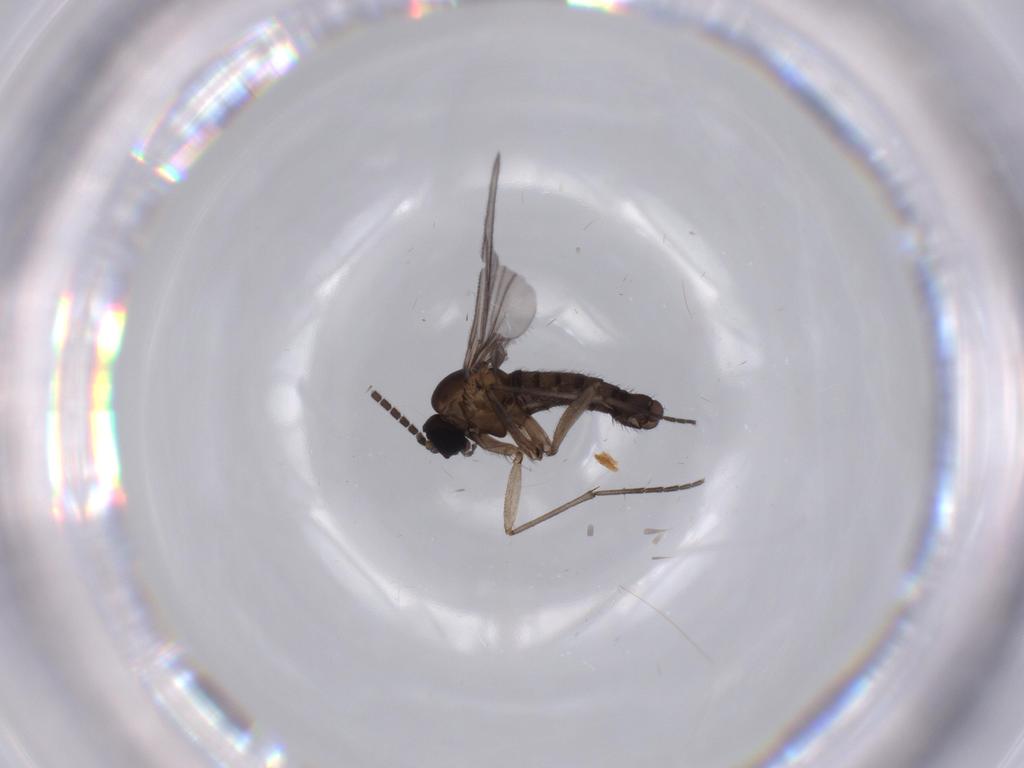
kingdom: Animalia
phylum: Arthropoda
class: Insecta
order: Diptera
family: Sciaridae
